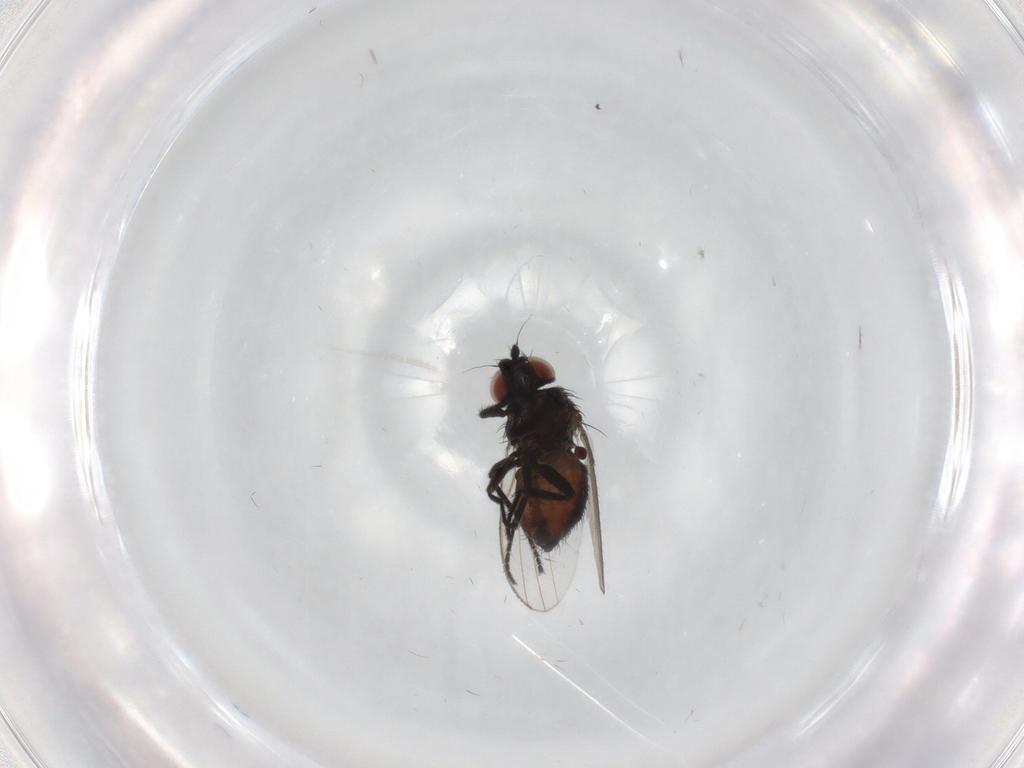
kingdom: Animalia
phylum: Arthropoda
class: Insecta
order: Diptera
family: Milichiidae
